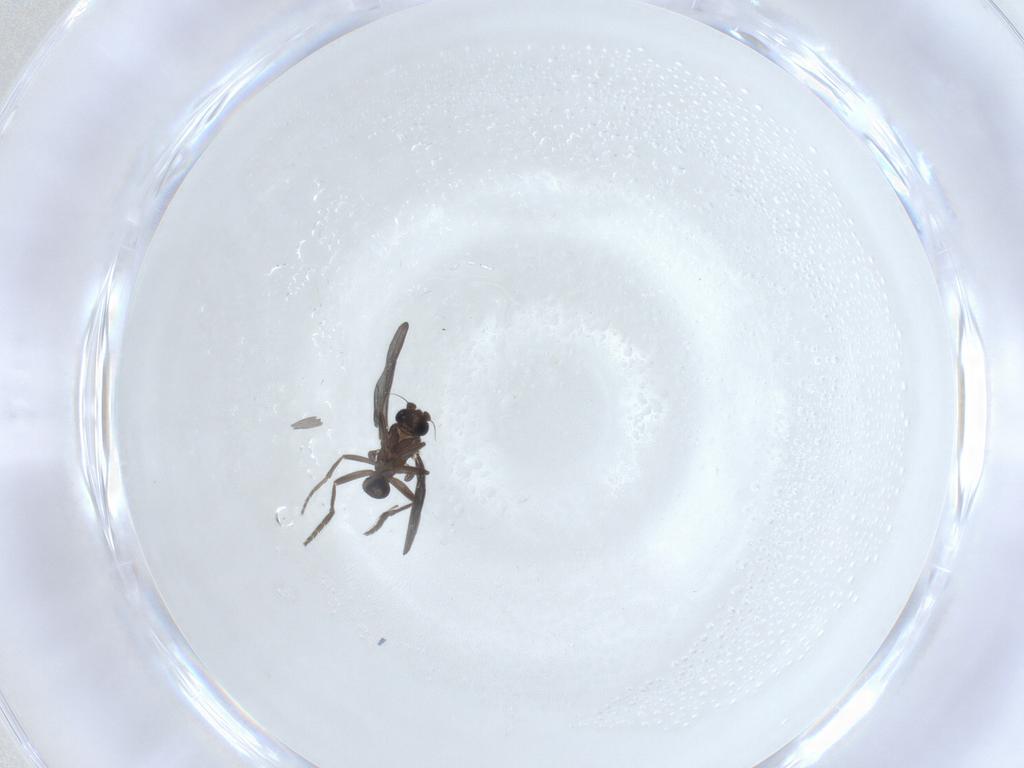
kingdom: Animalia
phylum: Arthropoda
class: Insecta
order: Diptera
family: Phoridae
